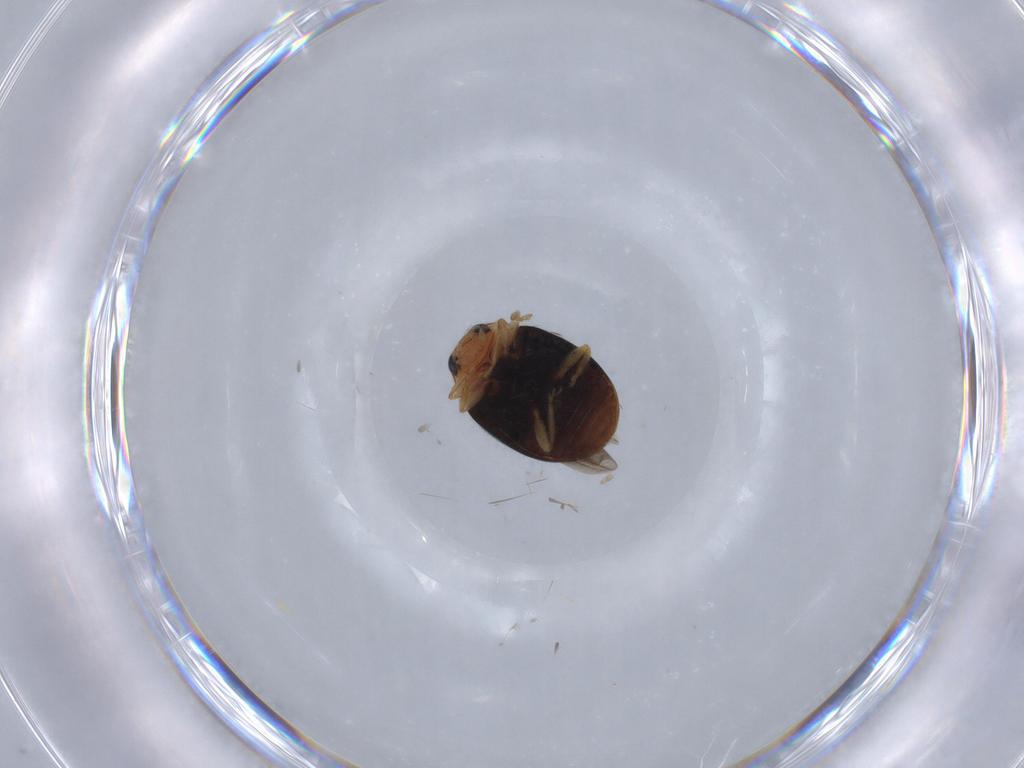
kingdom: Animalia
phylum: Arthropoda
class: Insecta
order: Coleoptera
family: Coccinellidae
